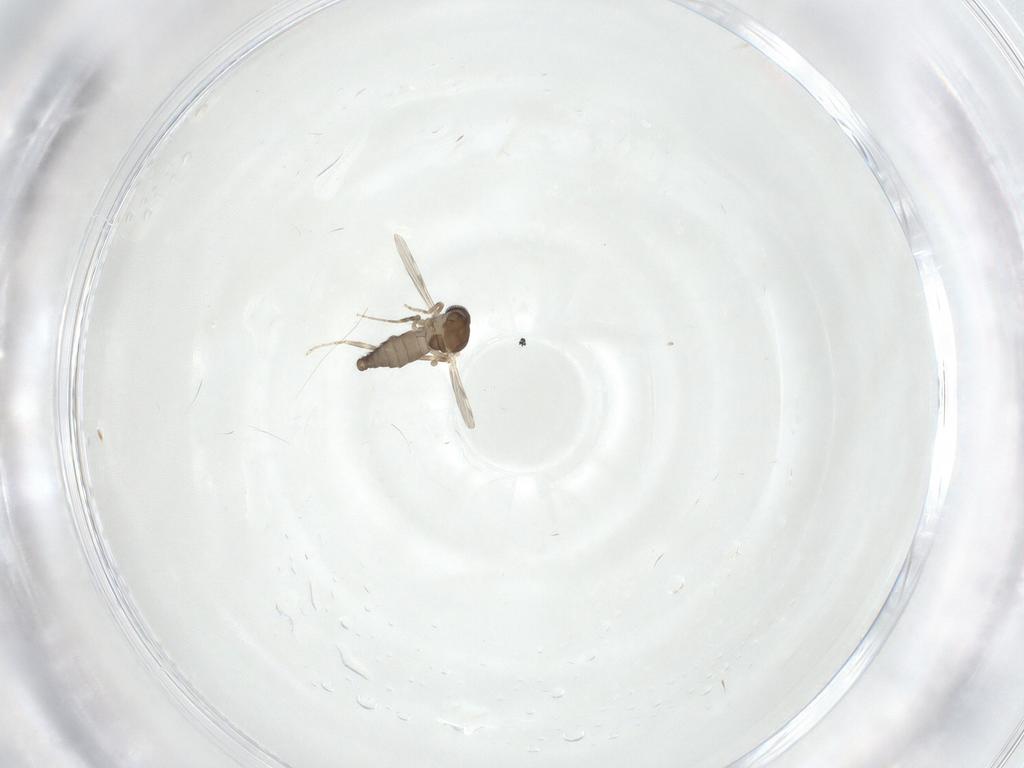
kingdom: Animalia
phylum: Arthropoda
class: Insecta
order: Diptera
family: Ceratopogonidae
